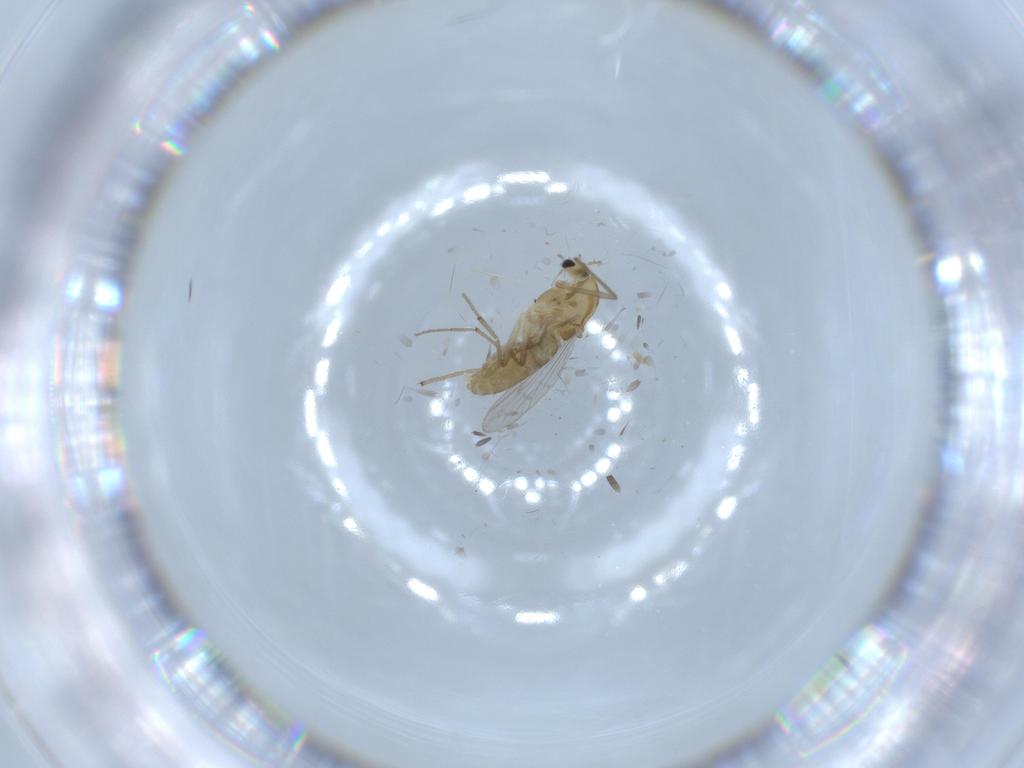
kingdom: Animalia
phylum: Arthropoda
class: Insecta
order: Diptera
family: Chironomidae
